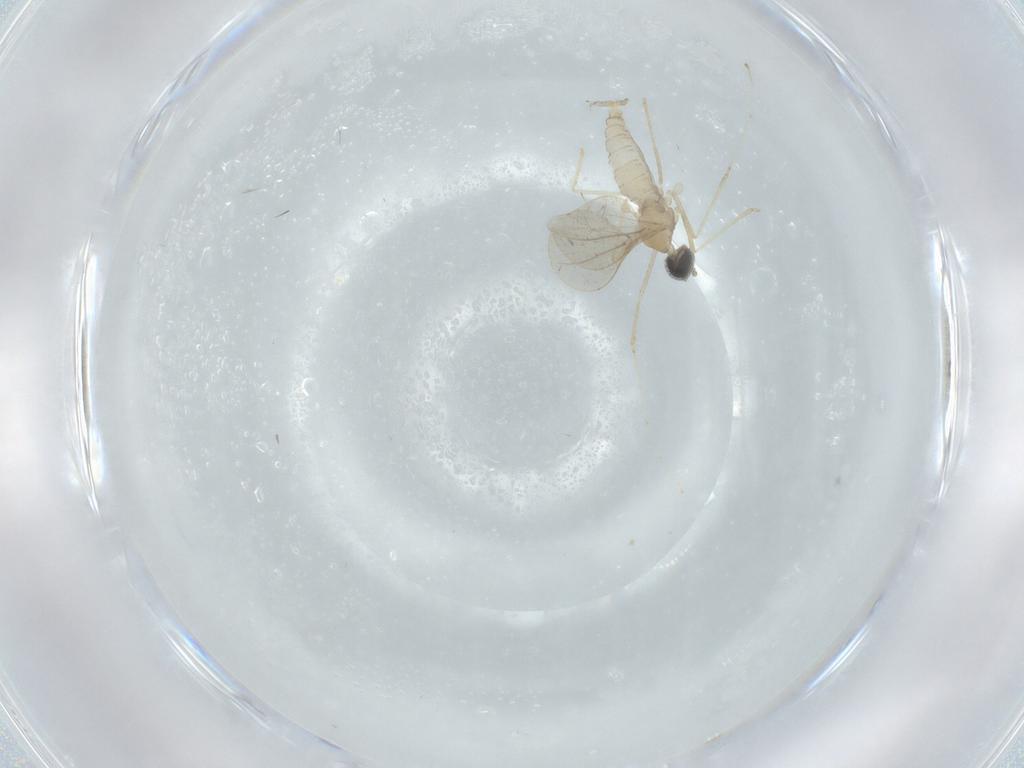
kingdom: Animalia
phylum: Arthropoda
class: Insecta
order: Diptera
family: Cecidomyiidae
